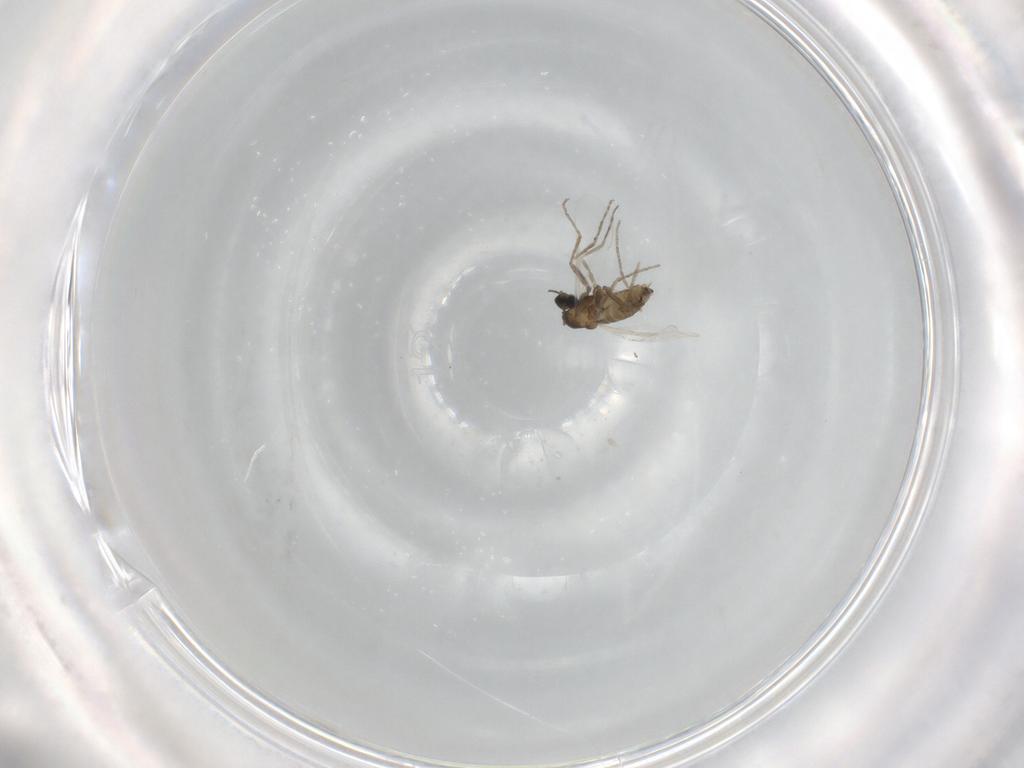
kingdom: Animalia
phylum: Arthropoda
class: Insecta
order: Diptera
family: Cecidomyiidae
